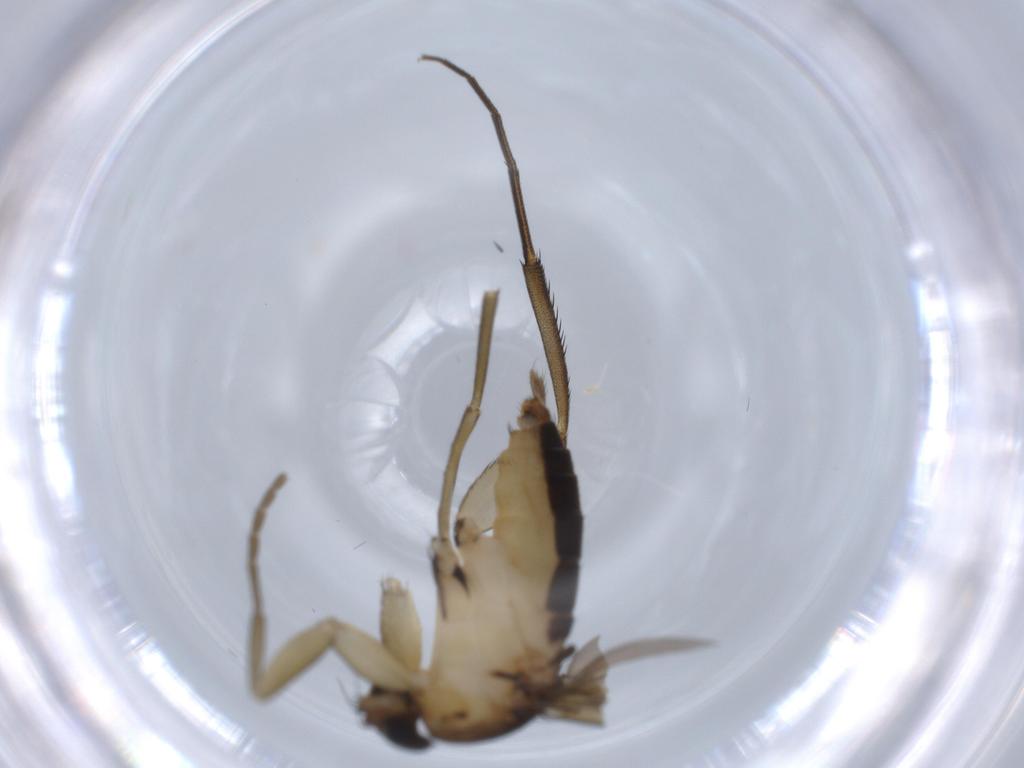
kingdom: Animalia
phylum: Arthropoda
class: Insecta
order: Diptera
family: Phoridae
